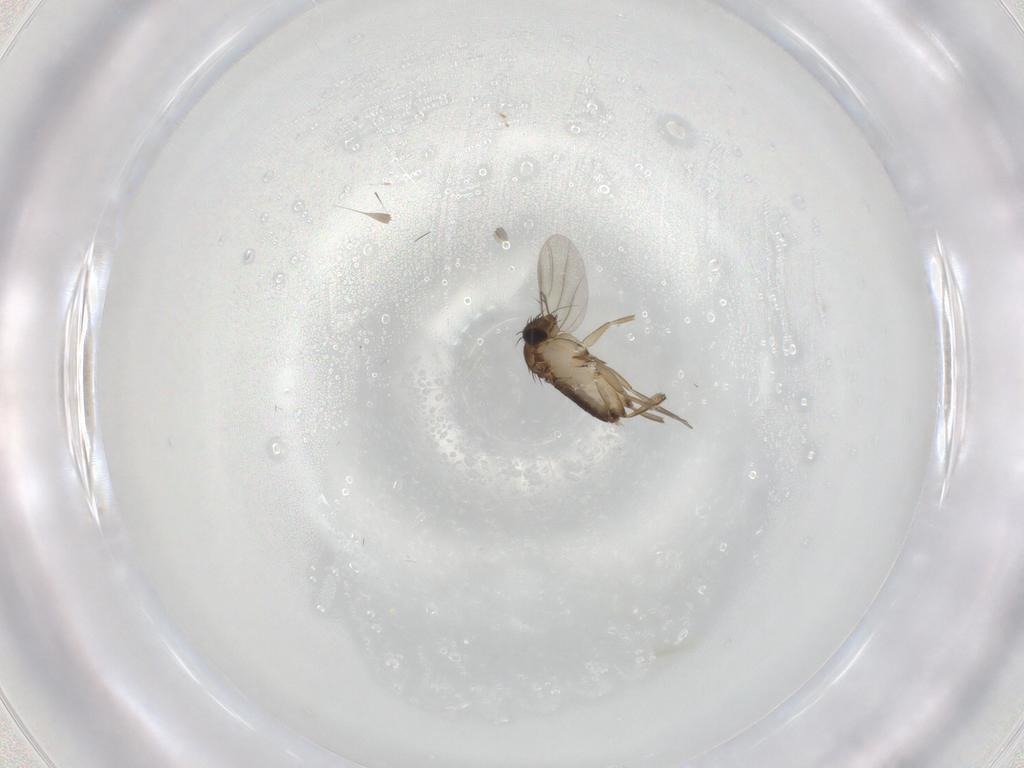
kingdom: Animalia
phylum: Arthropoda
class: Insecta
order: Diptera
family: Phoridae
